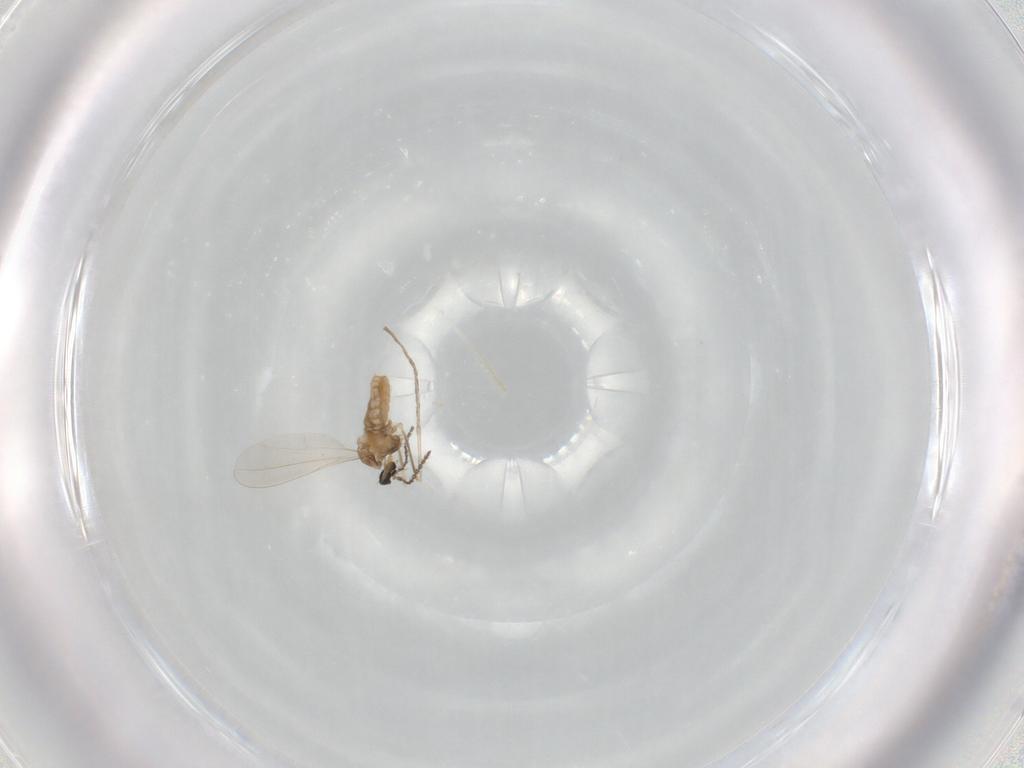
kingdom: Animalia
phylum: Arthropoda
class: Insecta
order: Diptera
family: Cecidomyiidae
